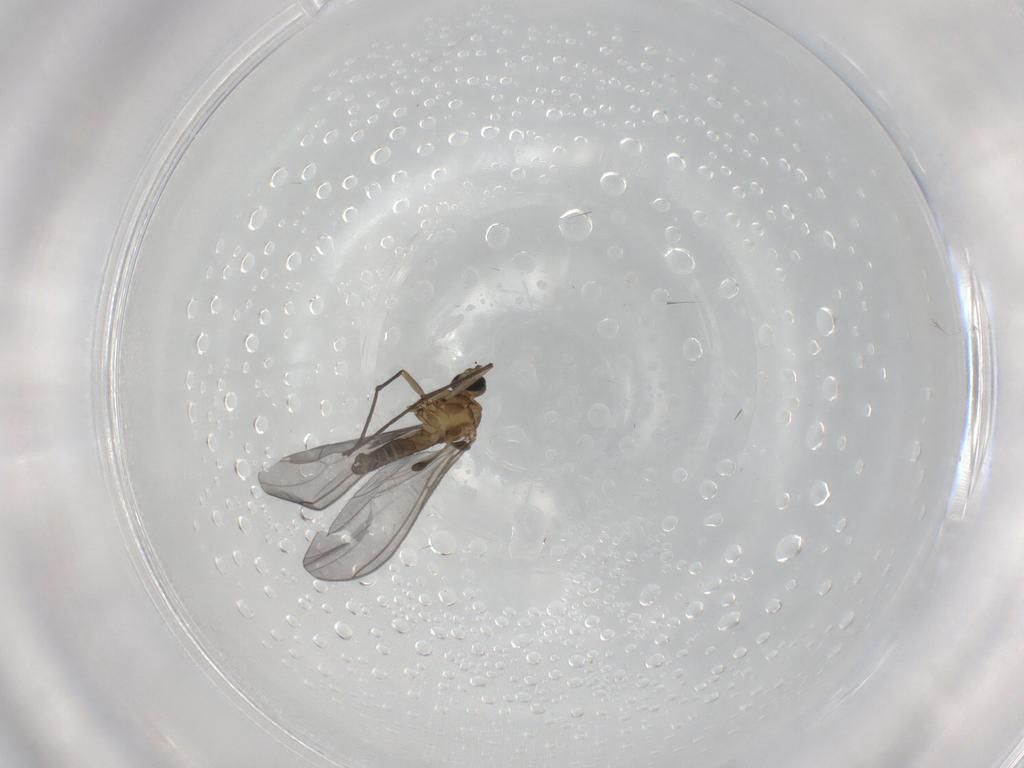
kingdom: Animalia
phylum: Arthropoda
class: Insecta
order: Diptera
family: Sciaridae
